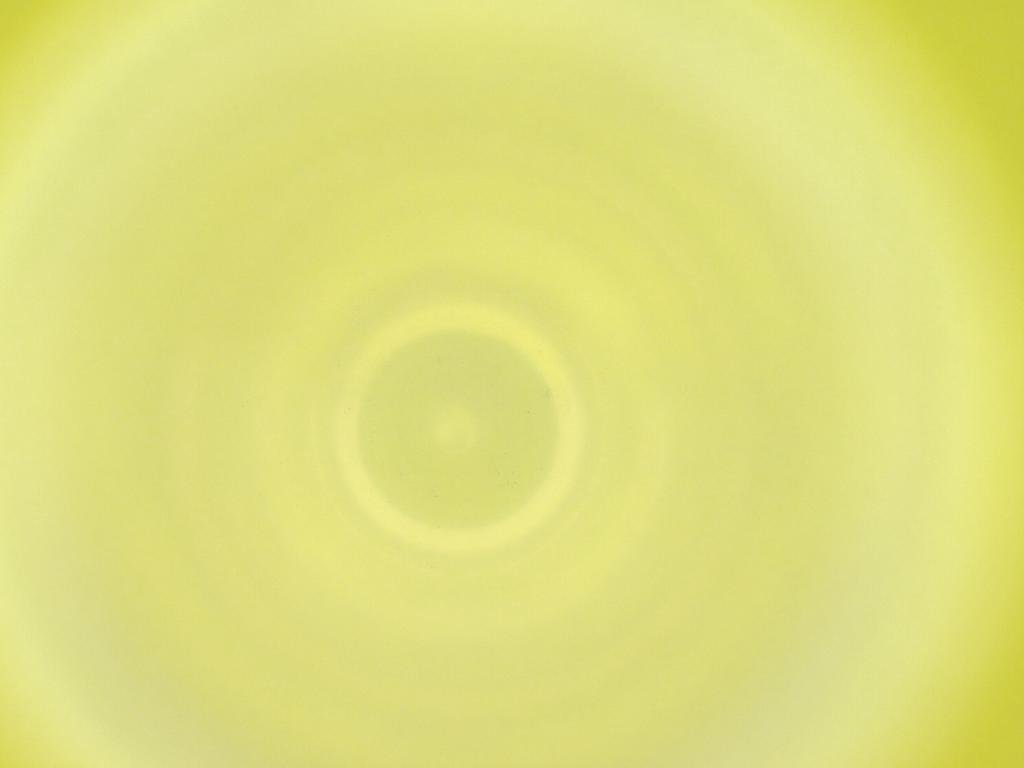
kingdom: Animalia
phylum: Arthropoda
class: Insecta
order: Diptera
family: Cecidomyiidae
